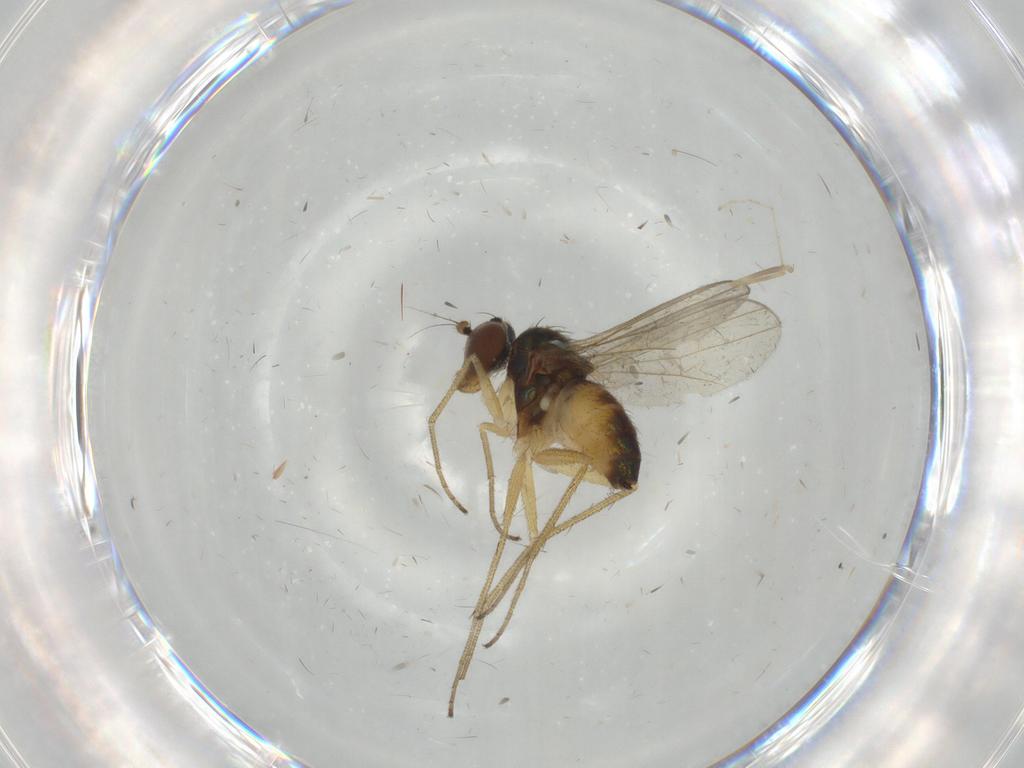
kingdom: Animalia
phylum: Arthropoda
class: Insecta
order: Diptera
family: Dolichopodidae
